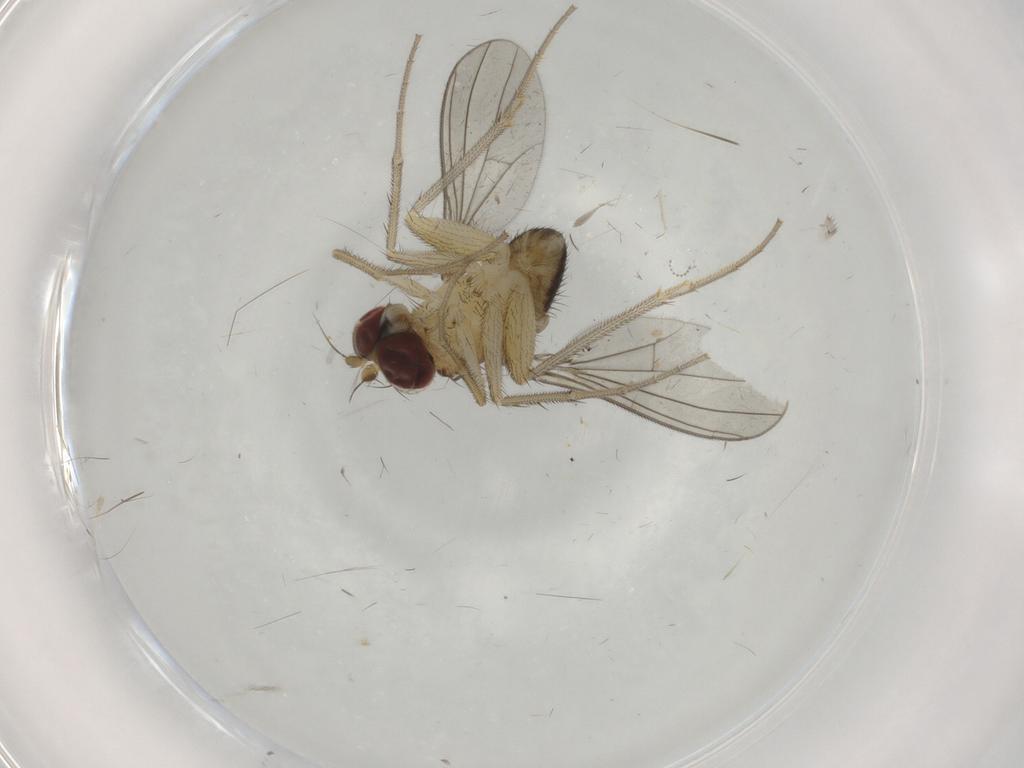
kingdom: Animalia
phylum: Arthropoda
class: Insecta
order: Diptera
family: Dolichopodidae
